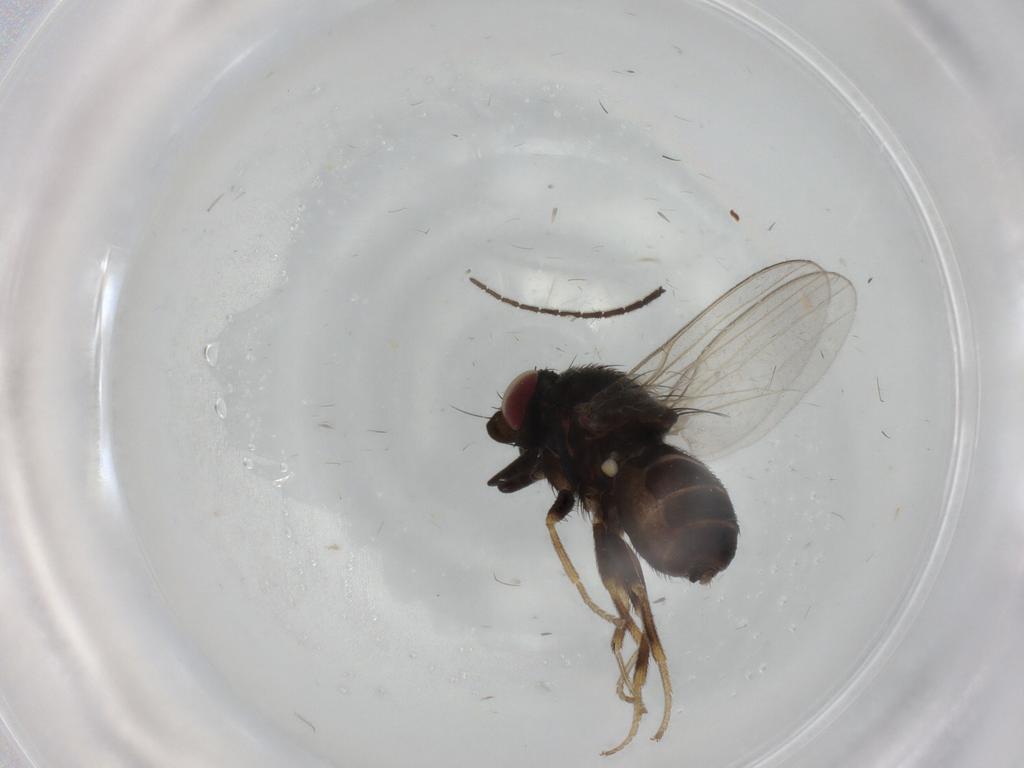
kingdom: Animalia
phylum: Arthropoda
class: Insecta
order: Diptera
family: Milichiidae
